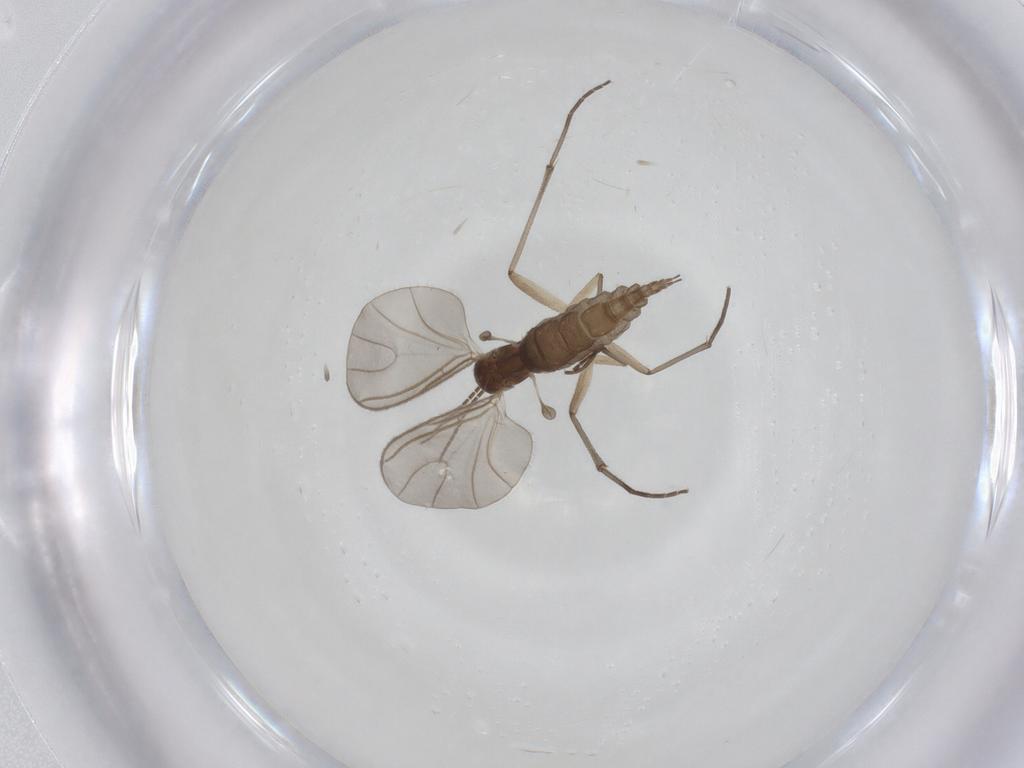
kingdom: Animalia
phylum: Arthropoda
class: Insecta
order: Diptera
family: Sciaridae
